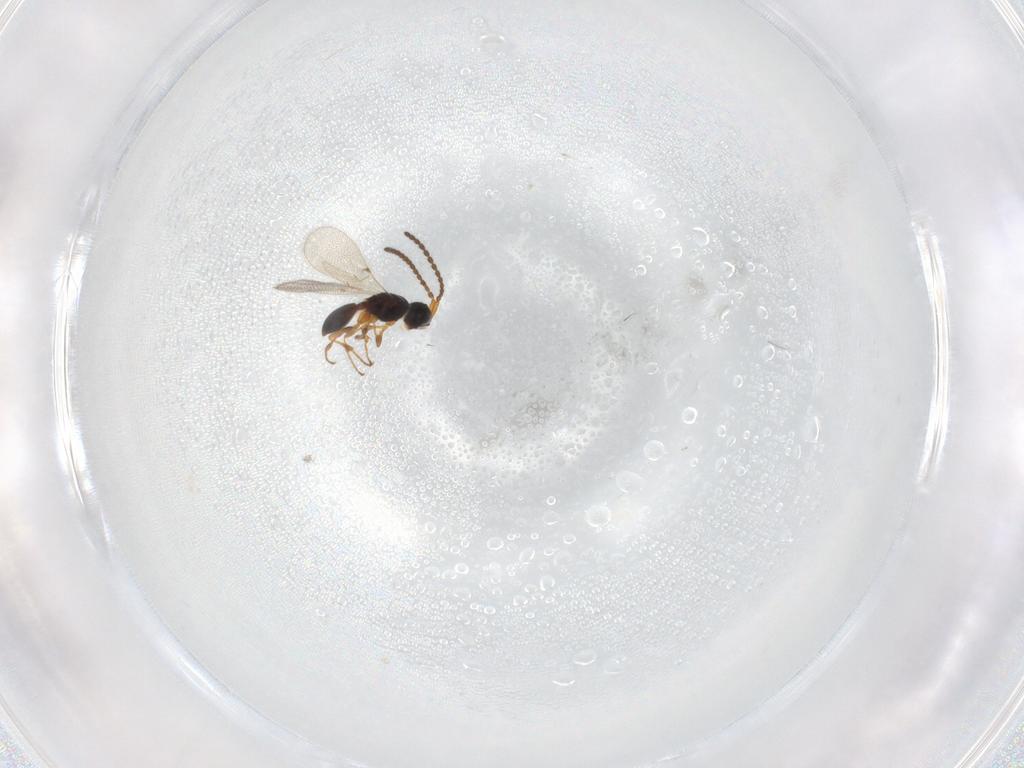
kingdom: Animalia
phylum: Arthropoda
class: Insecta
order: Hymenoptera
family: Diapriidae
